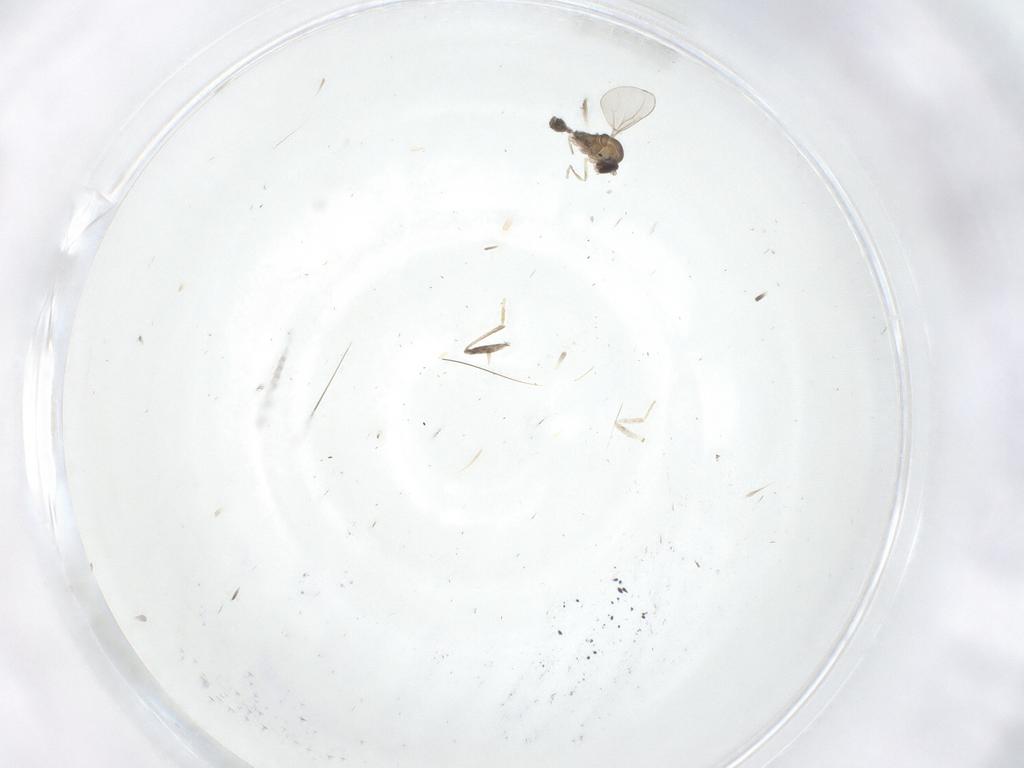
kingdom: Animalia
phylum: Arthropoda
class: Insecta
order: Diptera
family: Cecidomyiidae
